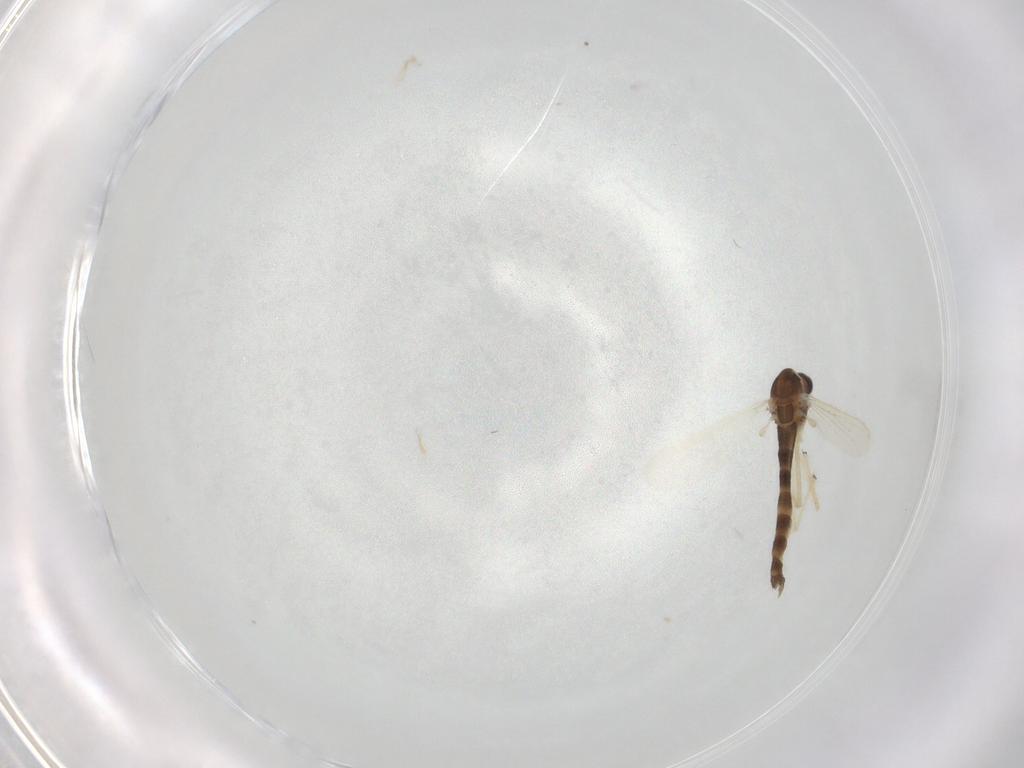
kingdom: Animalia
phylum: Arthropoda
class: Insecta
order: Diptera
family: Chironomidae
